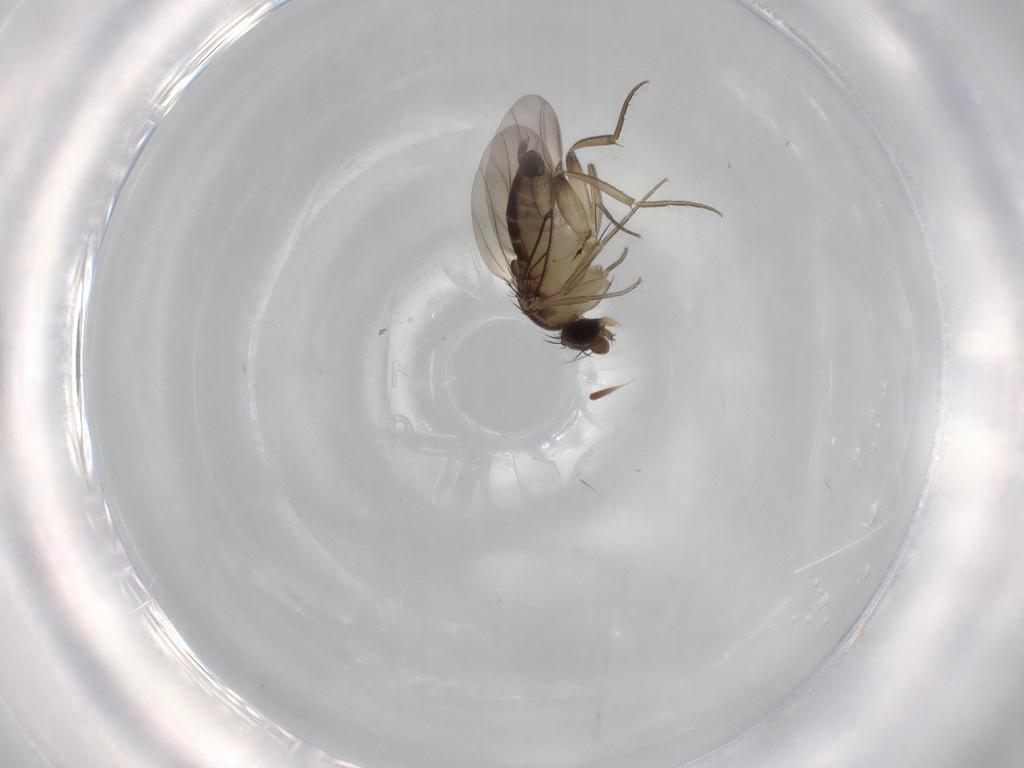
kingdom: Animalia
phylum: Arthropoda
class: Insecta
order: Diptera
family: Phoridae
